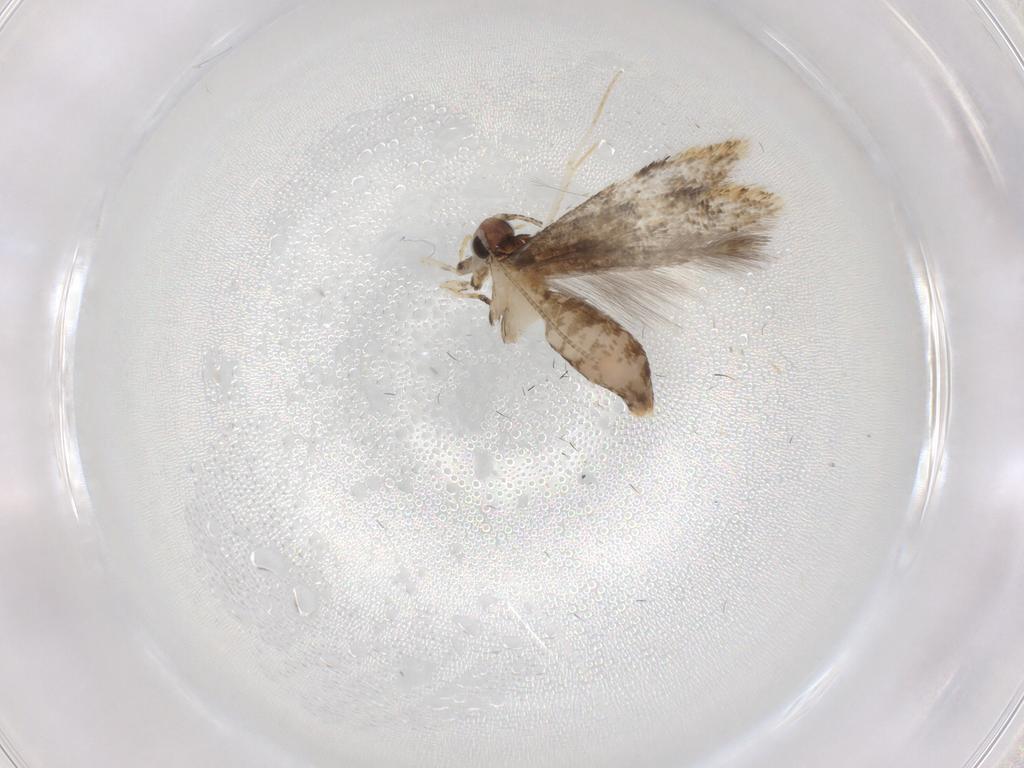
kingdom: Animalia
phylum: Arthropoda
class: Insecta
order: Lepidoptera
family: Tineidae
